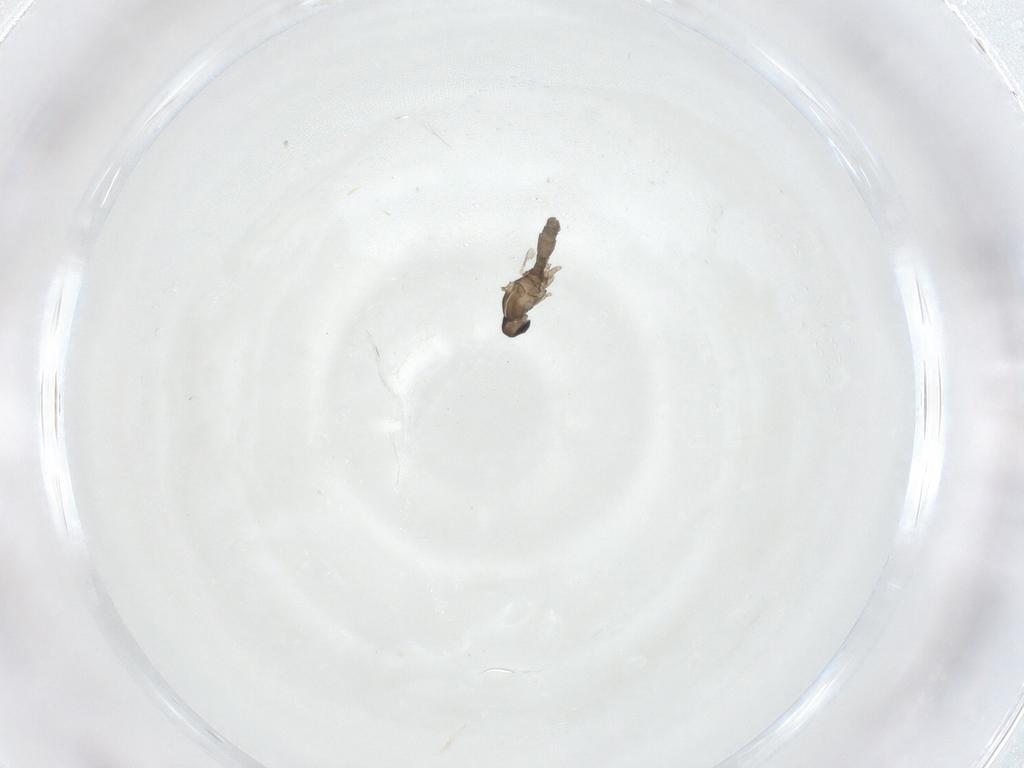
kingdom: Animalia
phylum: Arthropoda
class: Insecta
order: Diptera
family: Cecidomyiidae
